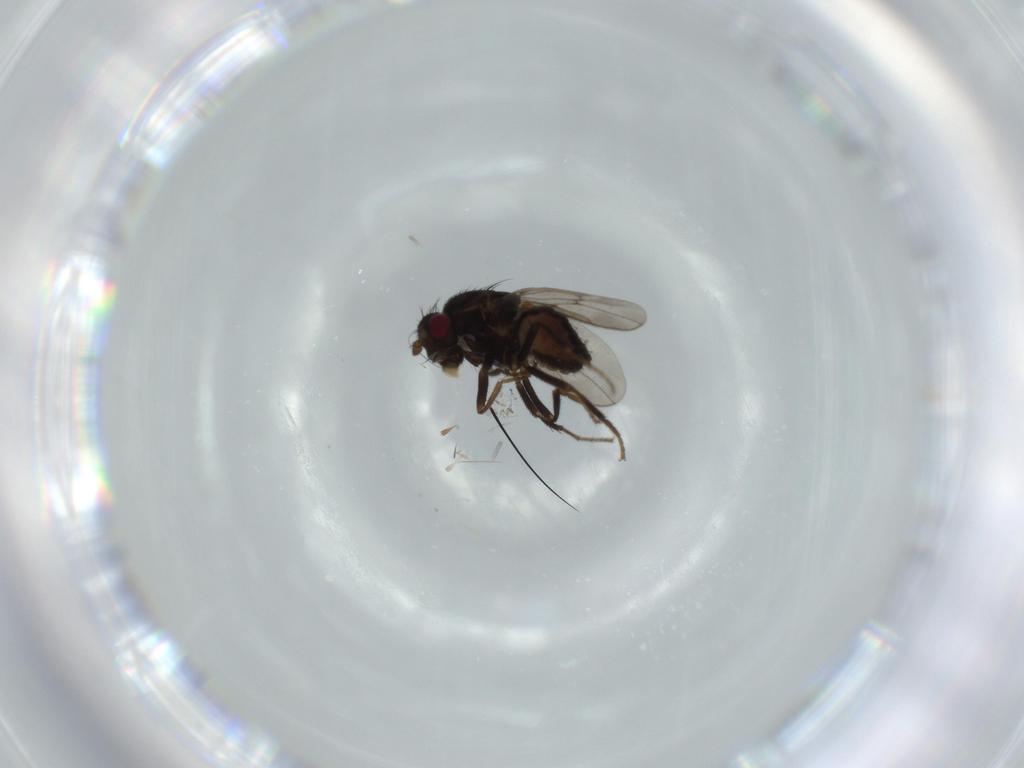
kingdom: Animalia
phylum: Arthropoda
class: Insecta
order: Diptera
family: Sphaeroceridae
